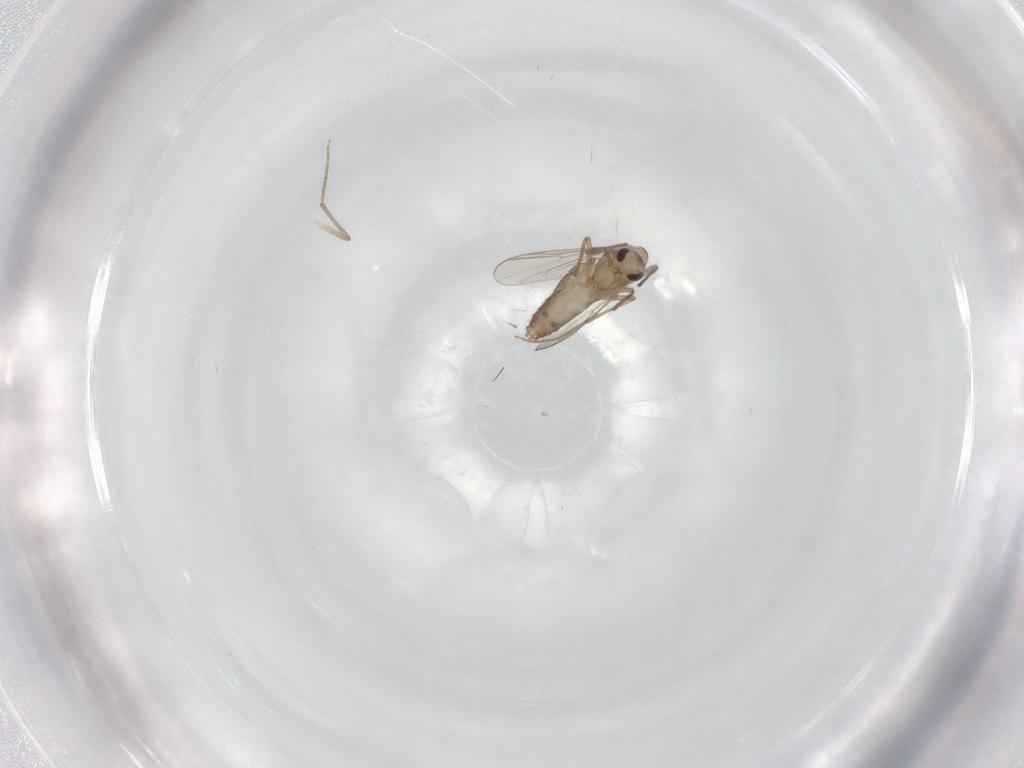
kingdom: Animalia
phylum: Arthropoda
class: Insecta
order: Diptera
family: Chironomidae
